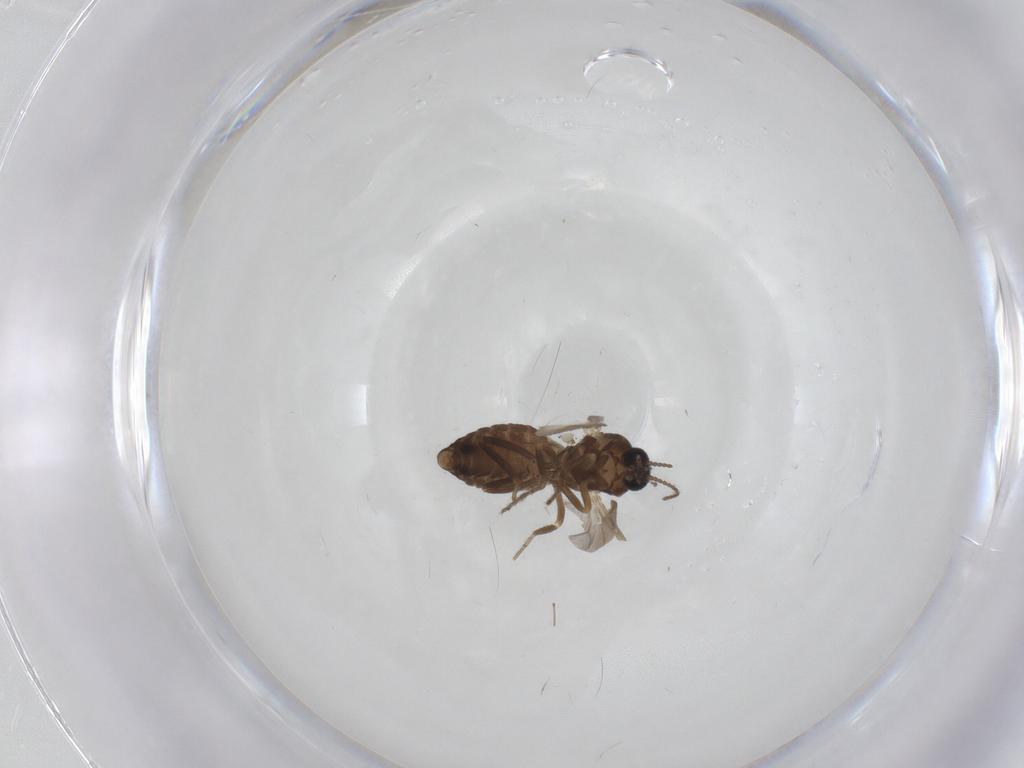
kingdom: Animalia
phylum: Arthropoda
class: Insecta
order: Diptera
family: Ceratopogonidae
